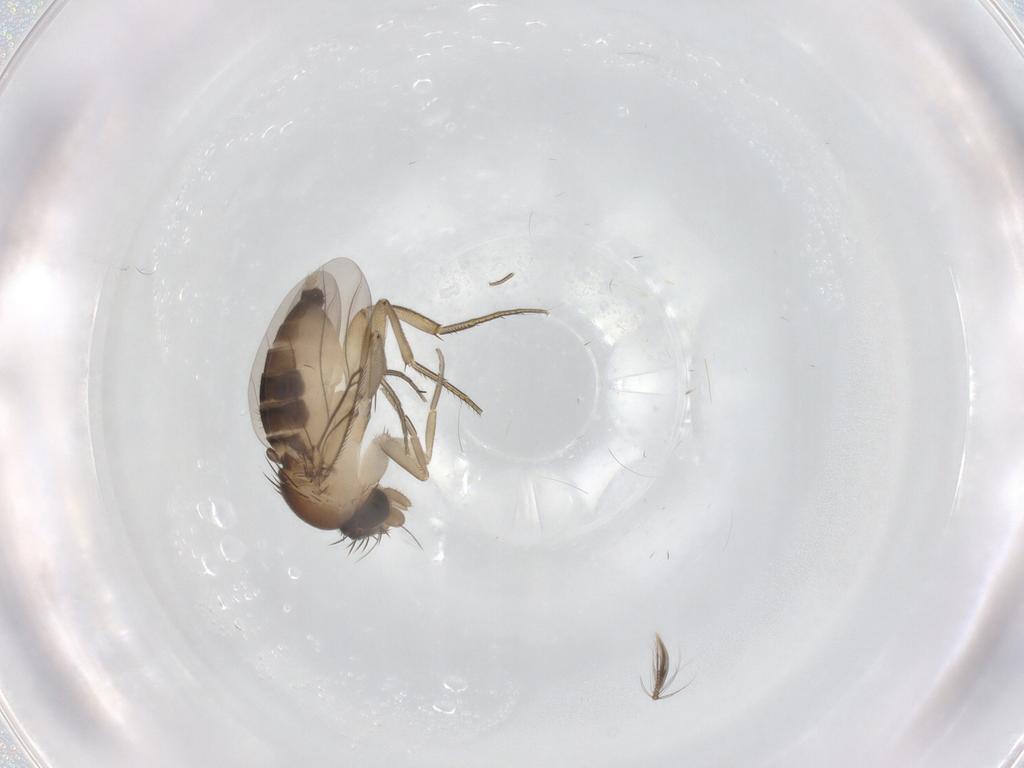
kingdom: Animalia
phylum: Arthropoda
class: Insecta
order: Diptera
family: Phoridae
